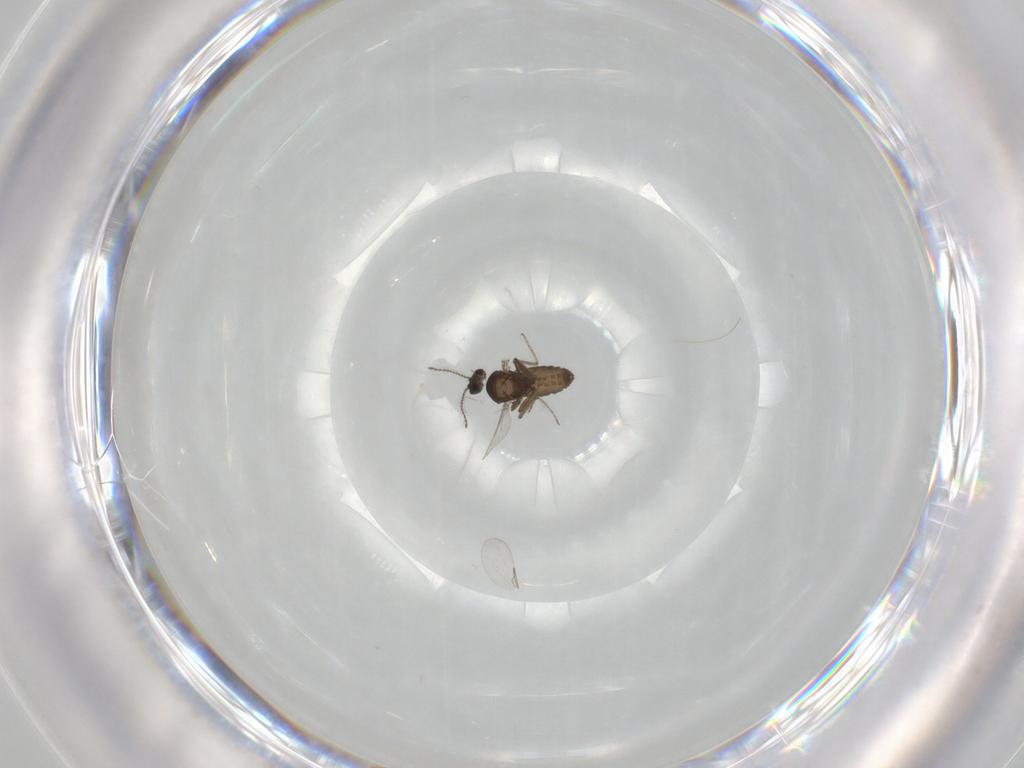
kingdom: Animalia
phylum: Arthropoda
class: Insecta
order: Diptera
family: Ceratopogonidae
